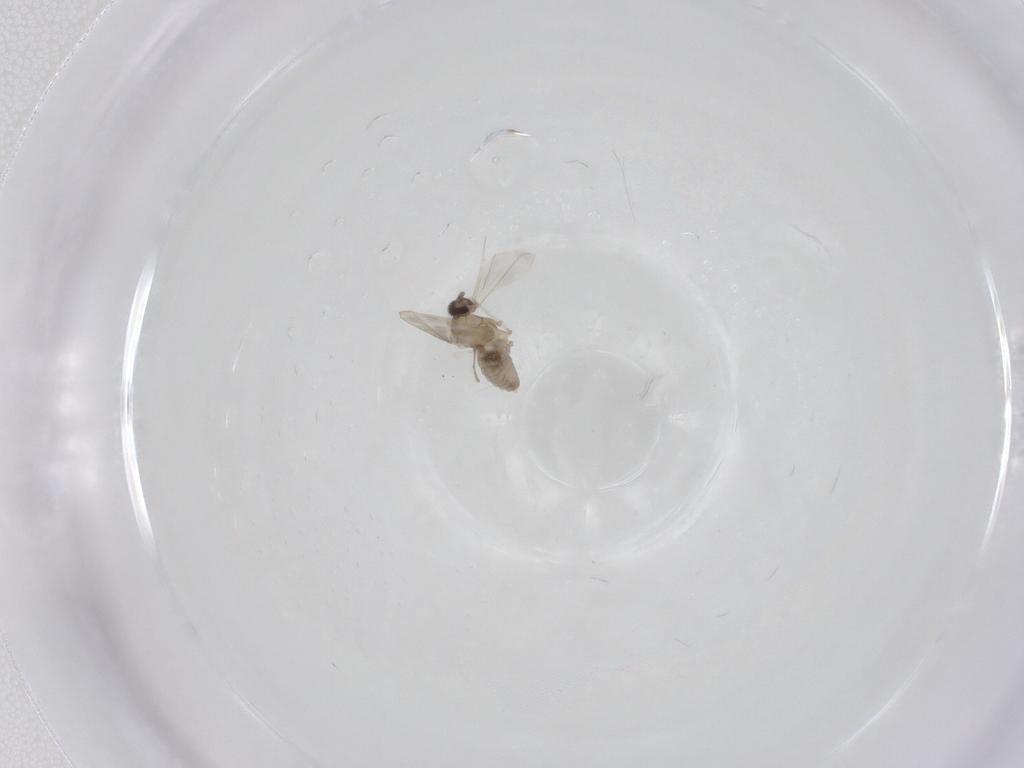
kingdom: Animalia
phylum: Arthropoda
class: Insecta
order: Diptera
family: Cecidomyiidae
